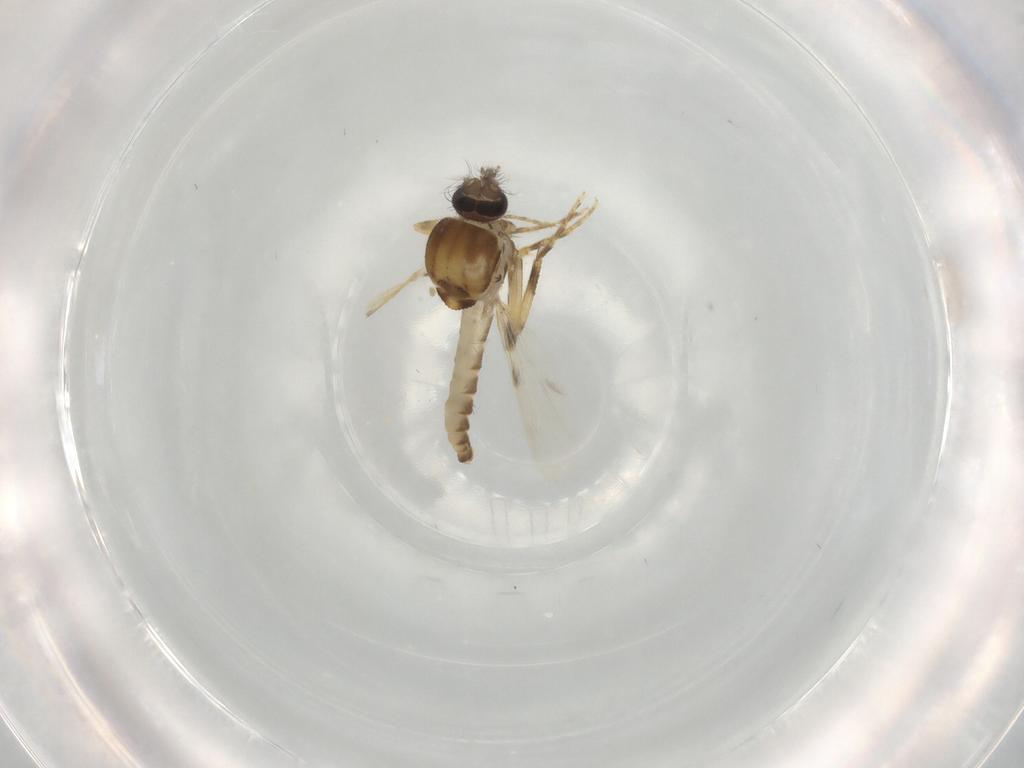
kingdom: Animalia
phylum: Arthropoda
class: Insecta
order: Diptera
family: Ceratopogonidae
